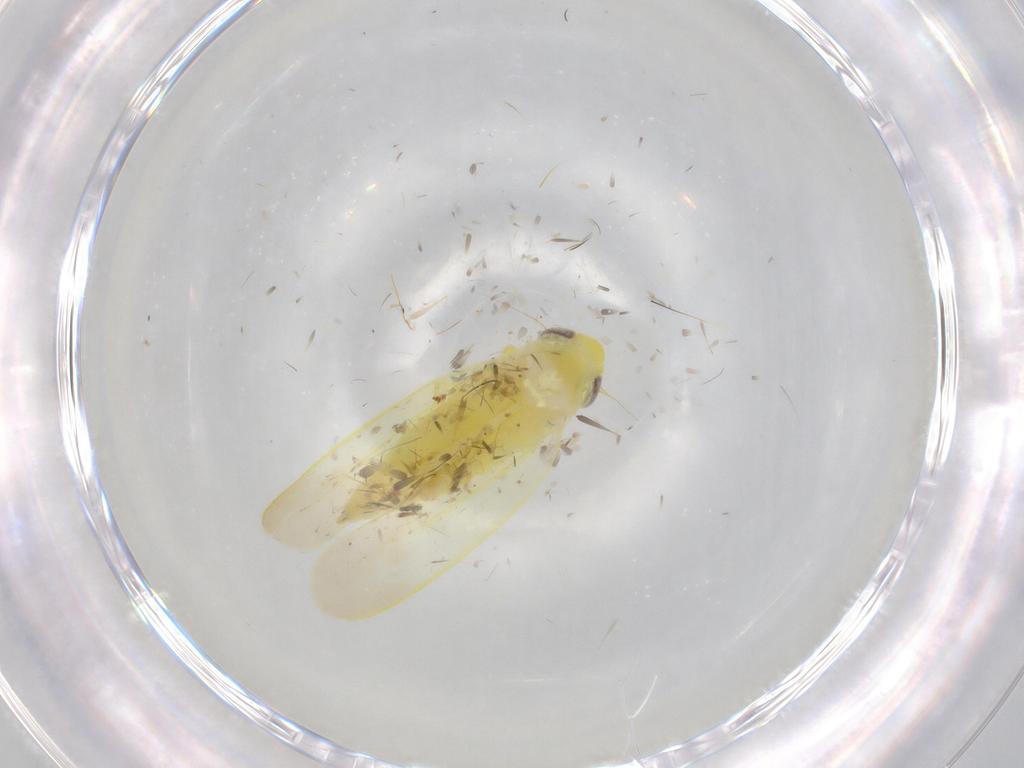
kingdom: Animalia
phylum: Arthropoda
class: Insecta
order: Hemiptera
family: Cicadellidae
